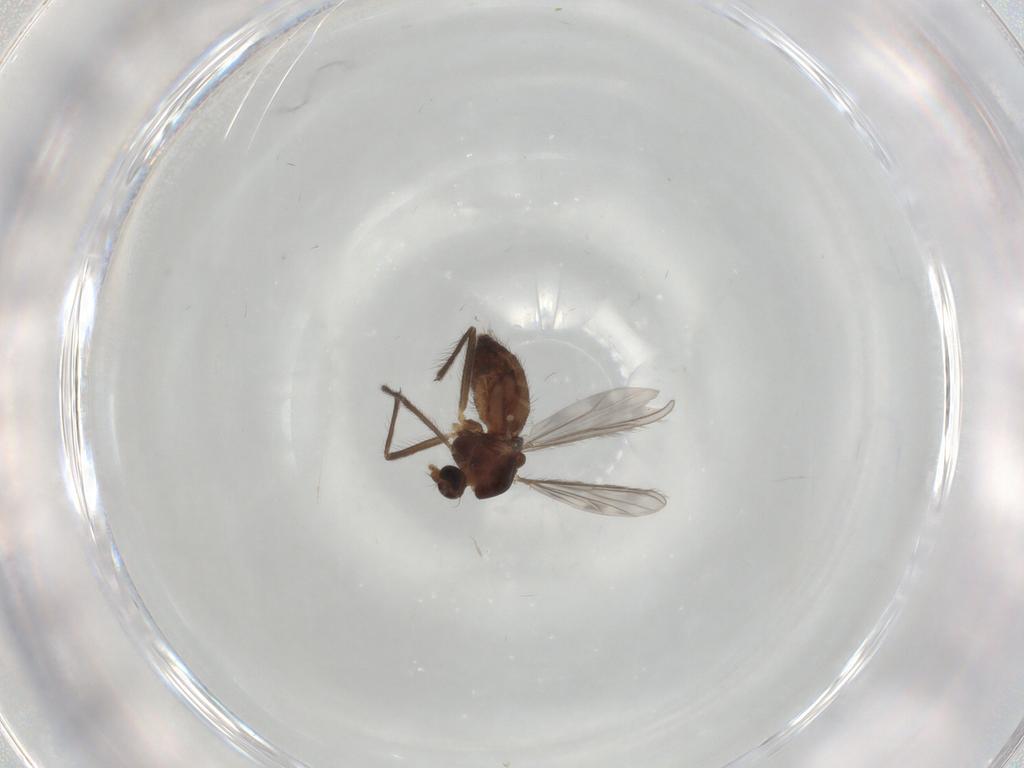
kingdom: Animalia
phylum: Arthropoda
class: Insecta
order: Diptera
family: Chironomidae
